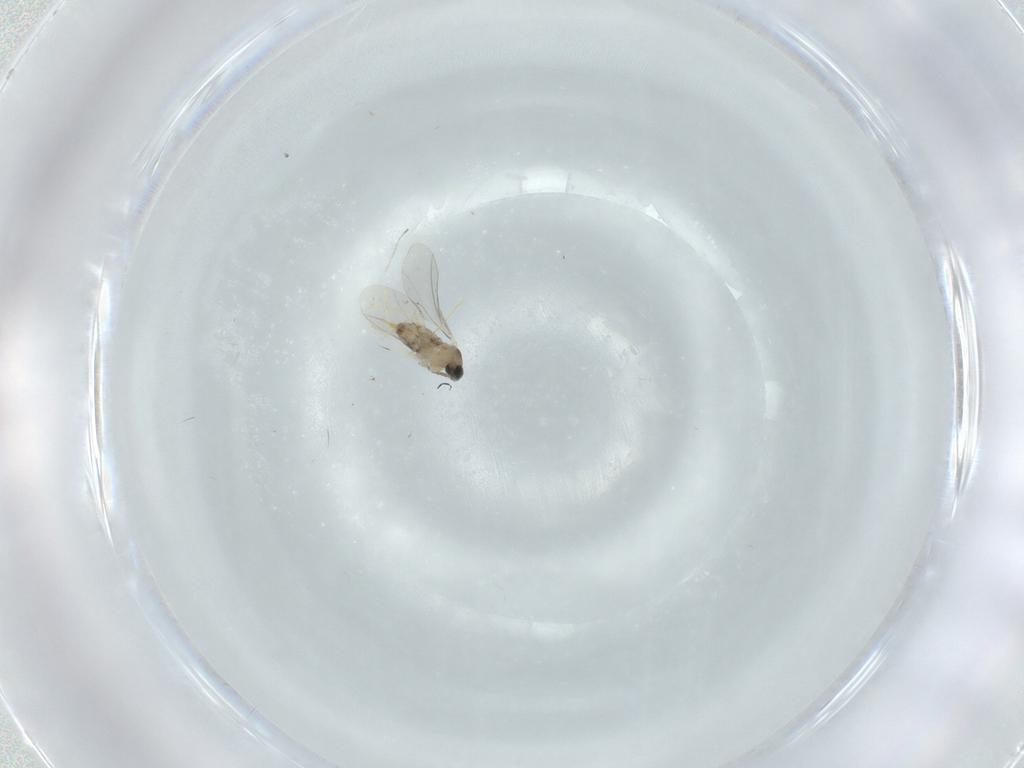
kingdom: Animalia
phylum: Arthropoda
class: Insecta
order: Diptera
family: Cecidomyiidae
